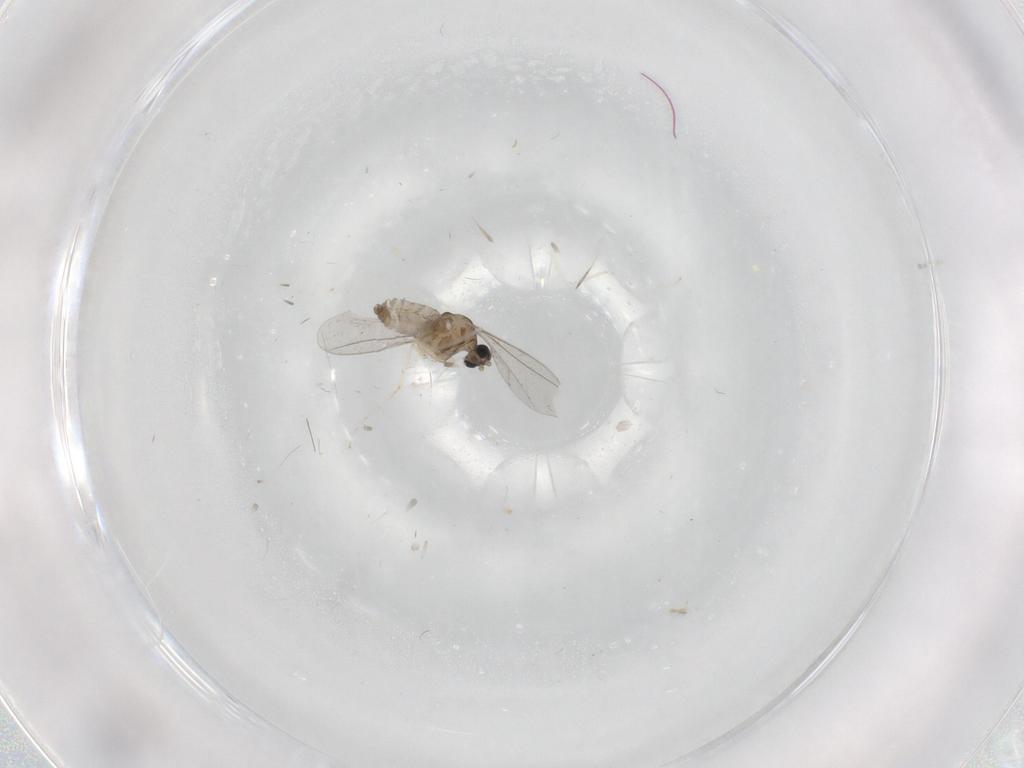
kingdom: Animalia
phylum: Arthropoda
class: Insecta
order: Diptera
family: Cecidomyiidae
